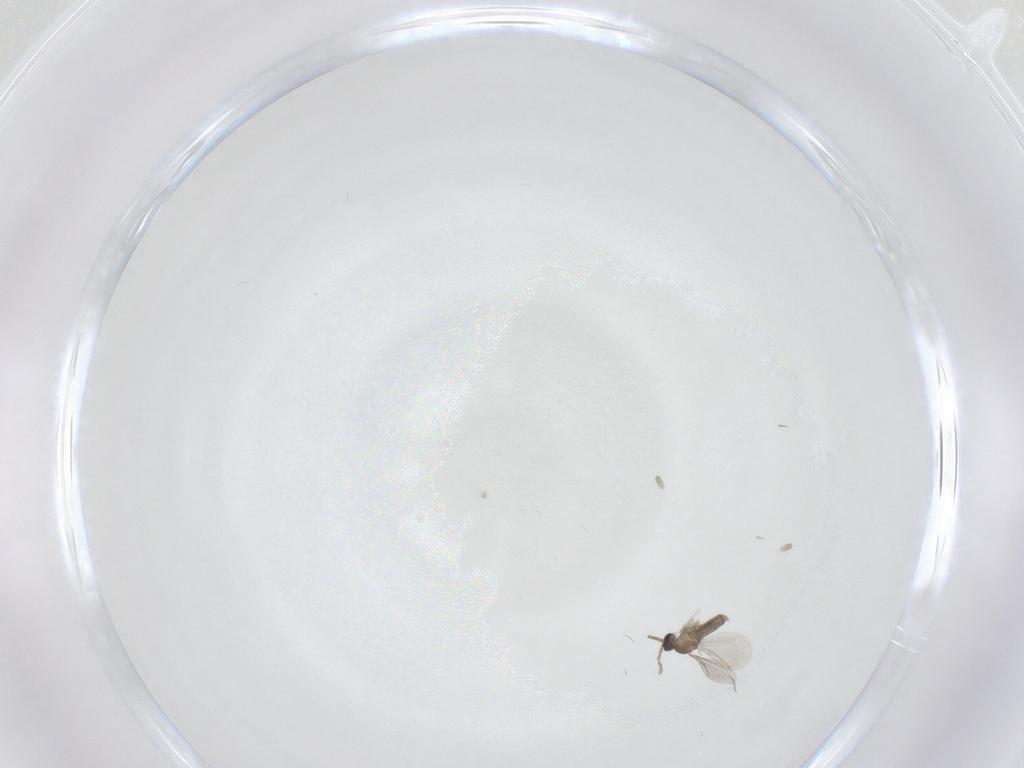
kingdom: Animalia
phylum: Arthropoda
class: Insecta
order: Diptera
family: Cecidomyiidae
